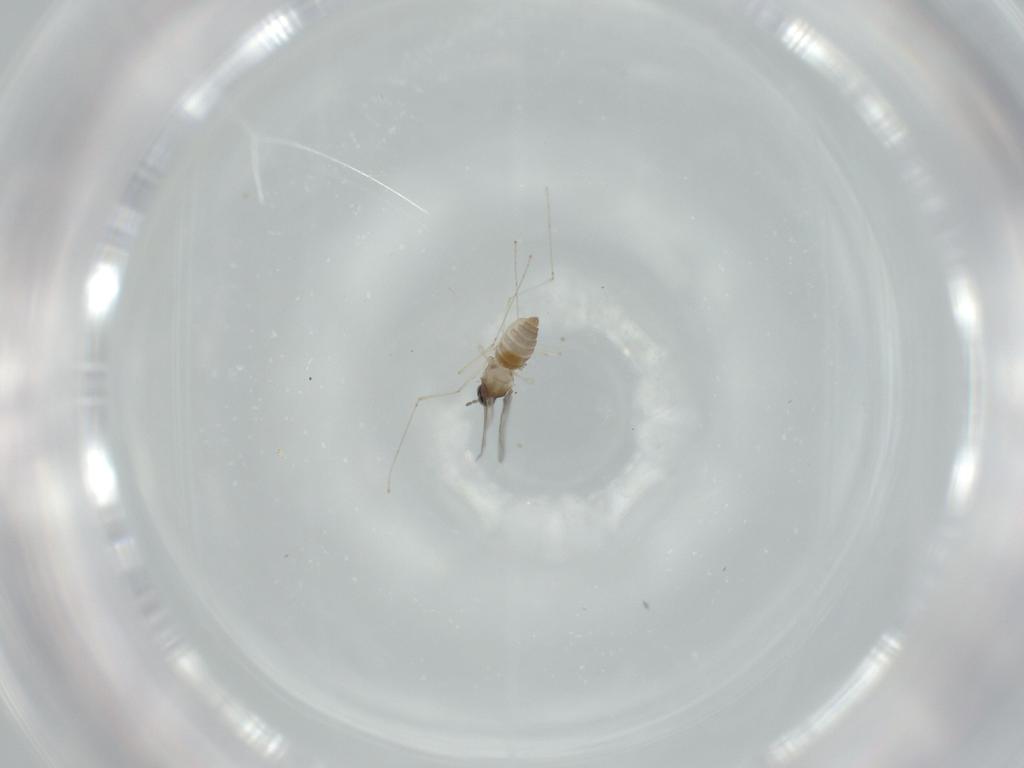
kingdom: Animalia
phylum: Arthropoda
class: Insecta
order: Diptera
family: Cecidomyiidae
